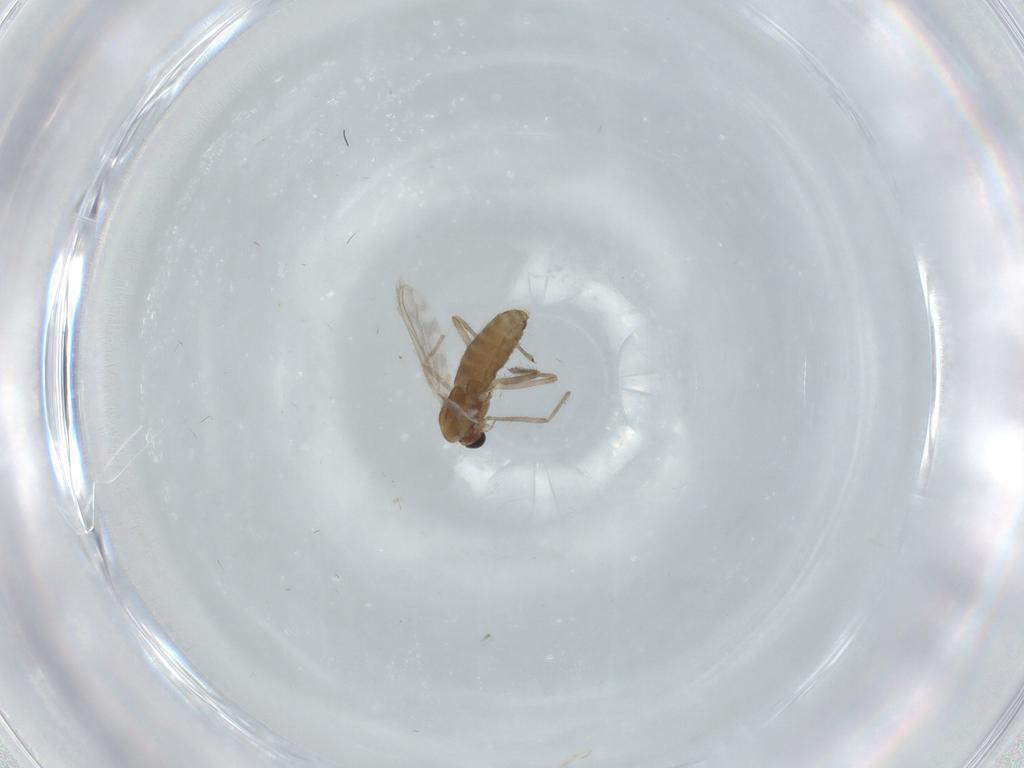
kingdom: Animalia
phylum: Arthropoda
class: Insecta
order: Diptera
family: Chironomidae
